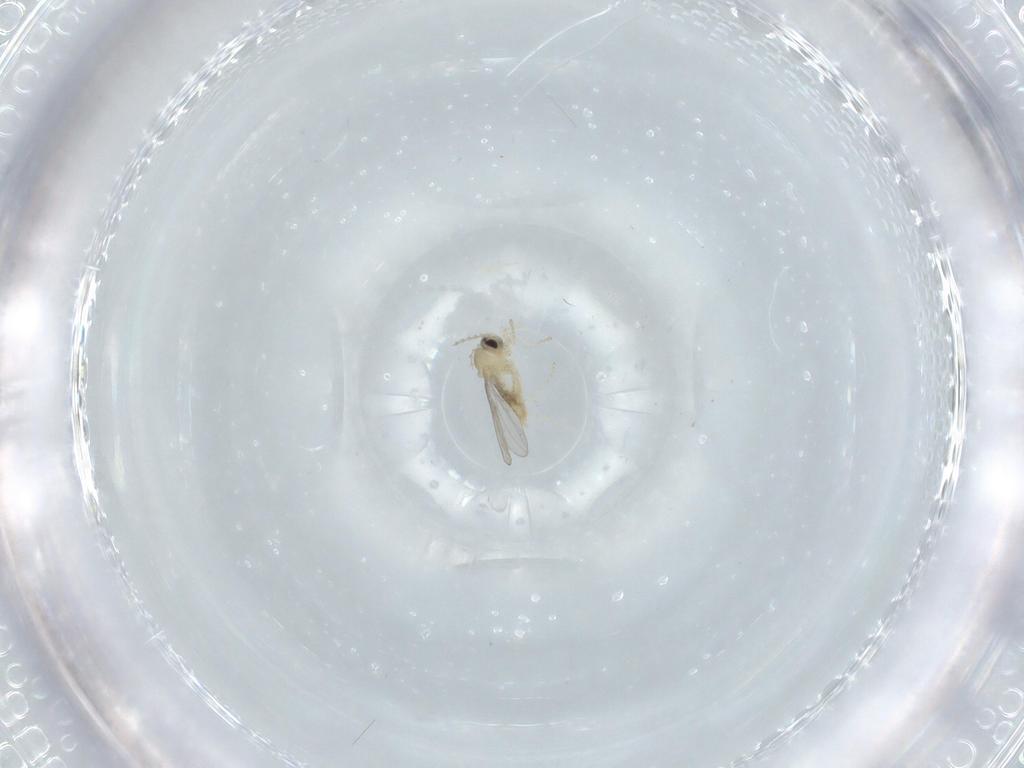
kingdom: Animalia
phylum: Arthropoda
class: Insecta
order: Diptera
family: Cecidomyiidae
